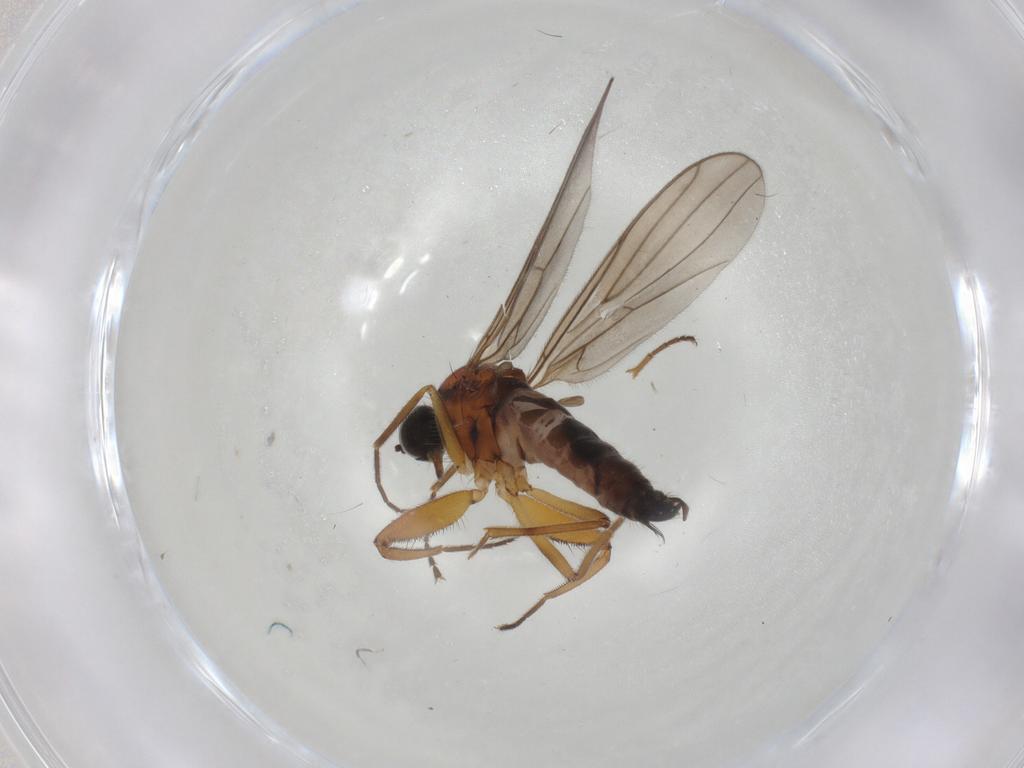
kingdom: Animalia
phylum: Arthropoda
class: Insecta
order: Diptera
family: Hybotidae
